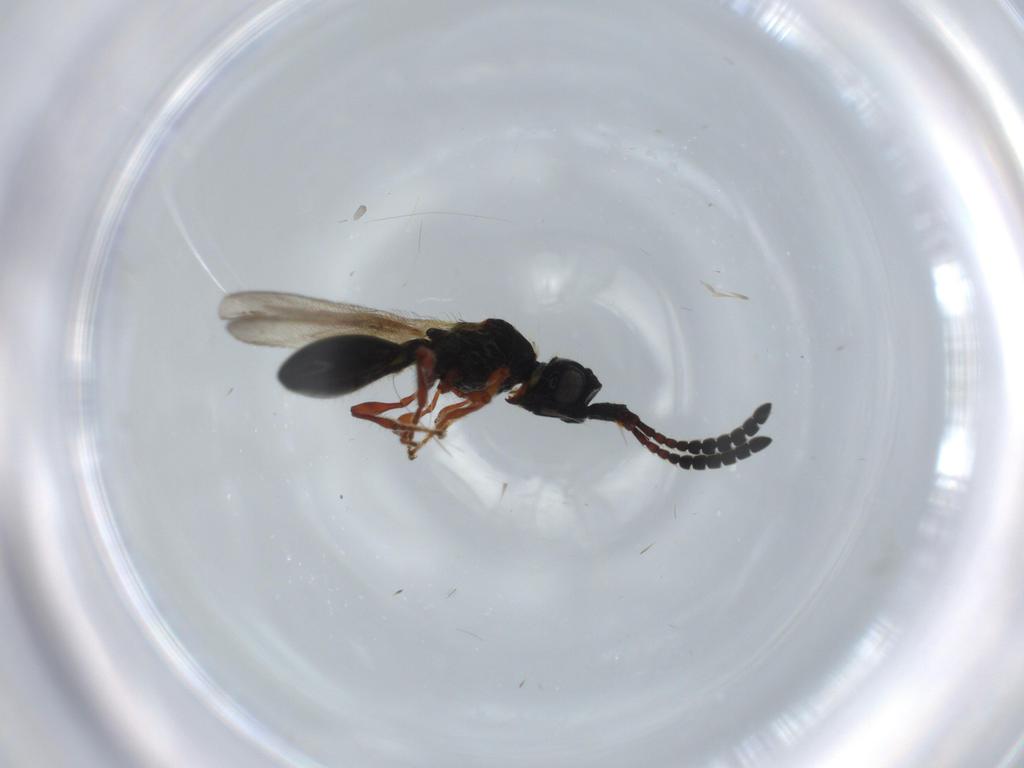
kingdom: Animalia
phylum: Arthropoda
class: Insecta
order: Hymenoptera
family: Diapriidae
